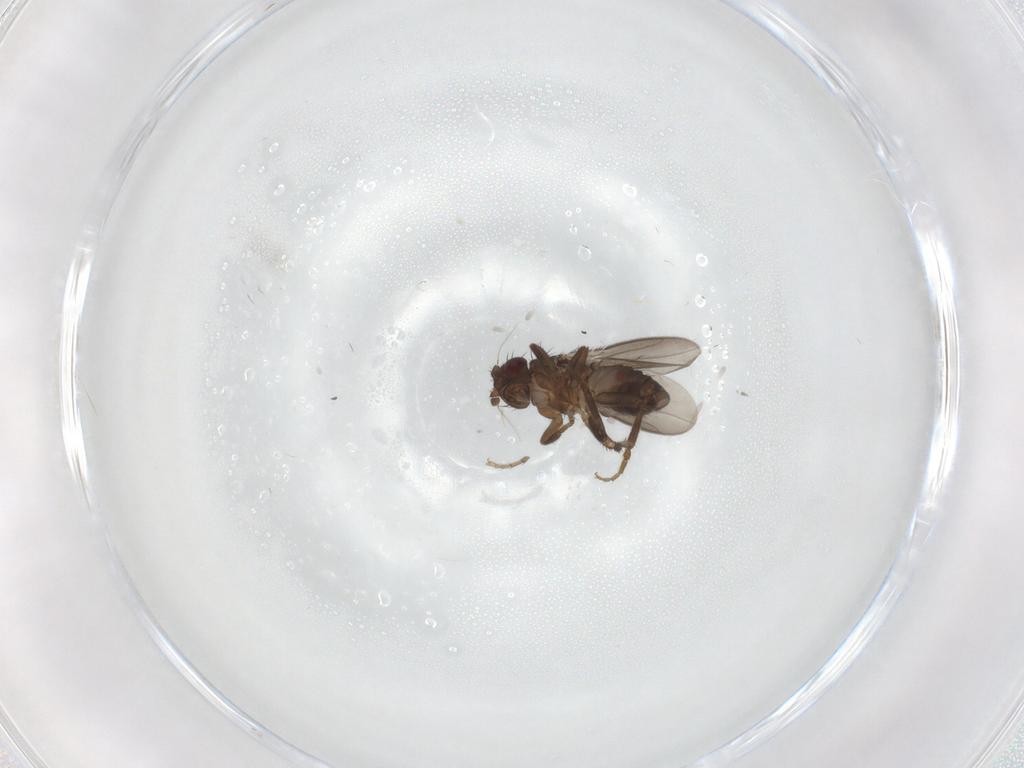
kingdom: Animalia
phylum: Arthropoda
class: Insecta
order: Diptera
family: Sphaeroceridae
